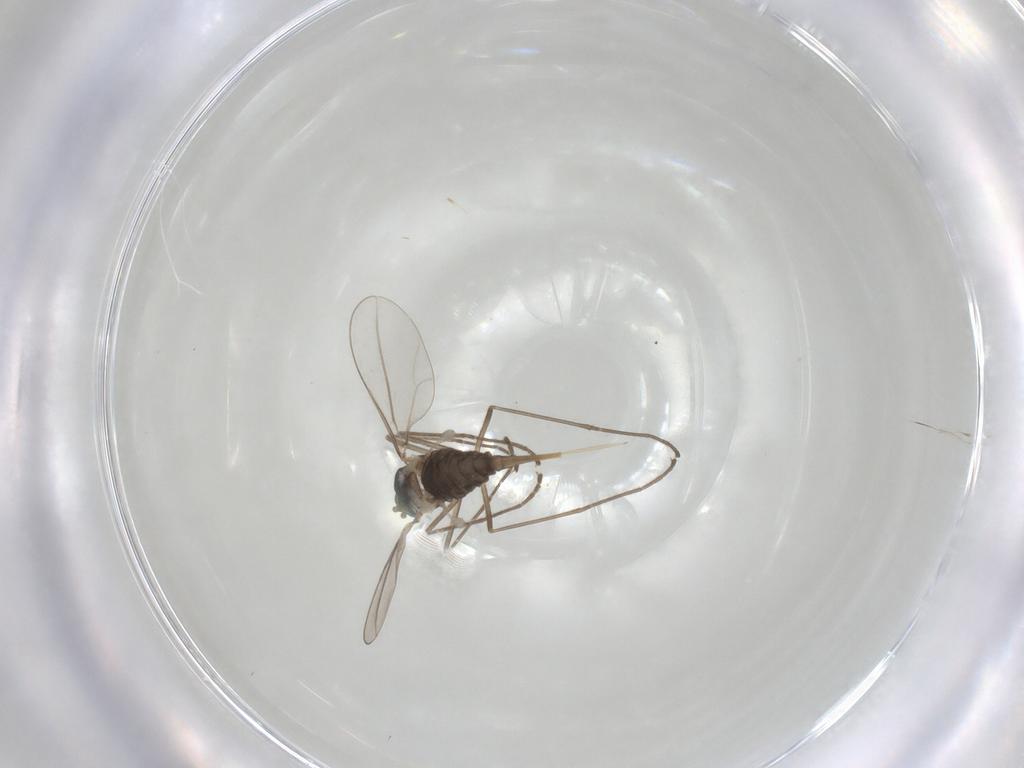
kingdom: Animalia
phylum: Arthropoda
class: Insecta
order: Diptera
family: Cecidomyiidae
